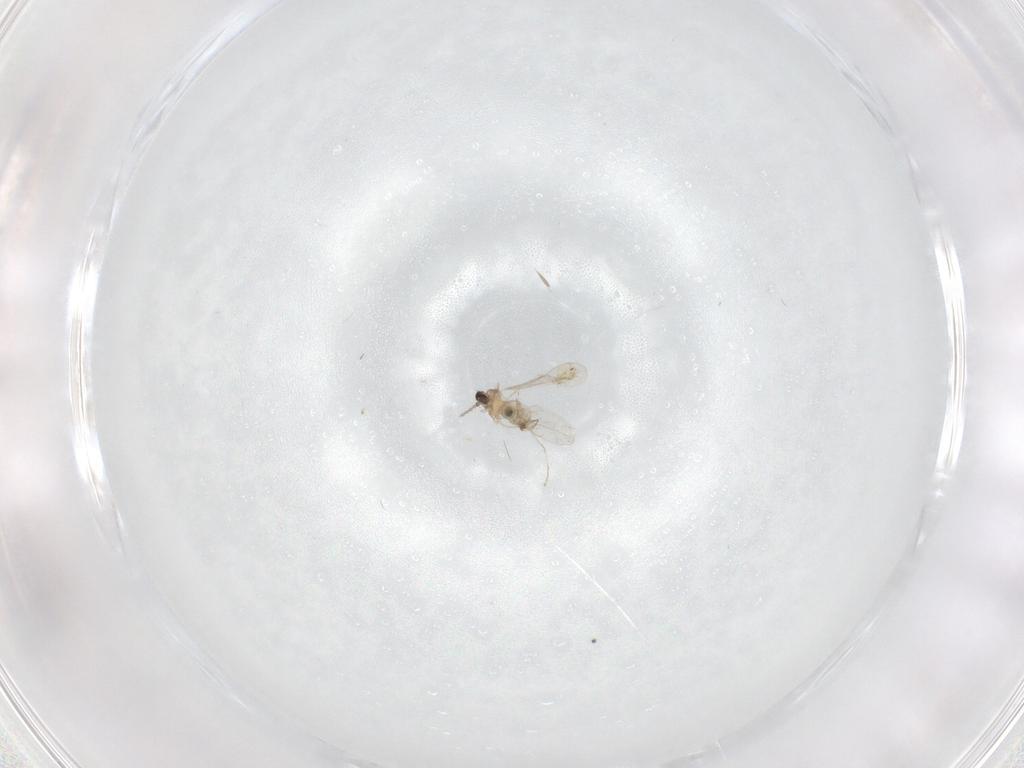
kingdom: Animalia
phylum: Arthropoda
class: Insecta
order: Diptera
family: Cecidomyiidae
